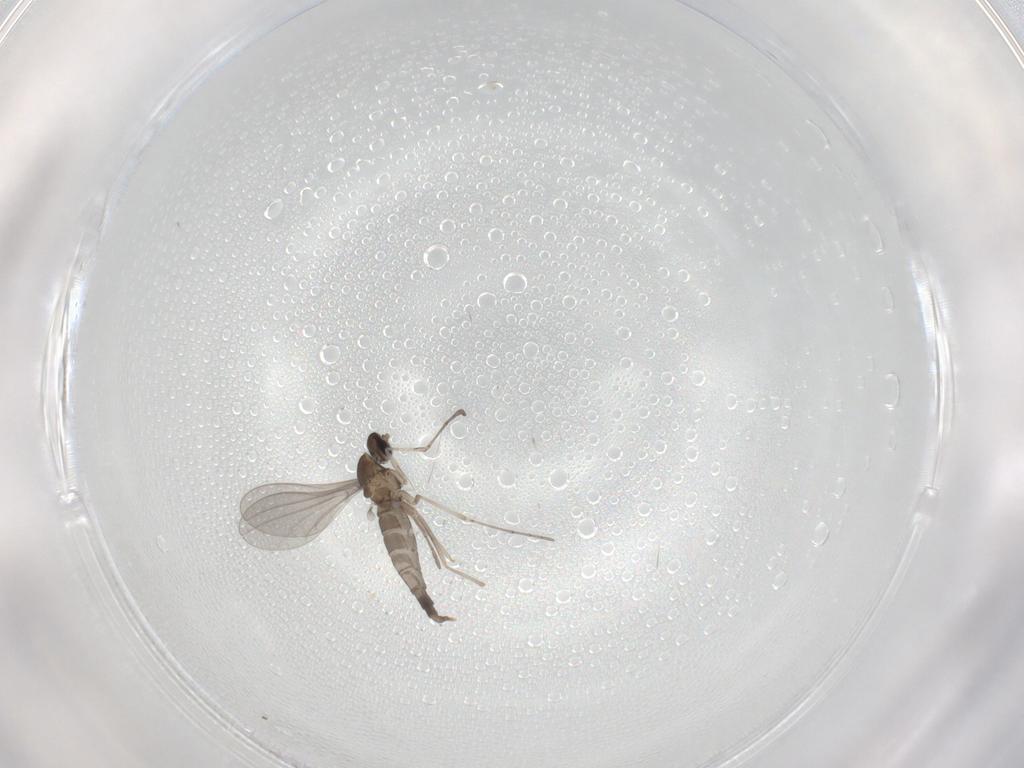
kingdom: Animalia
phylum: Arthropoda
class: Insecta
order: Diptera
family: Cecidomyiidae
